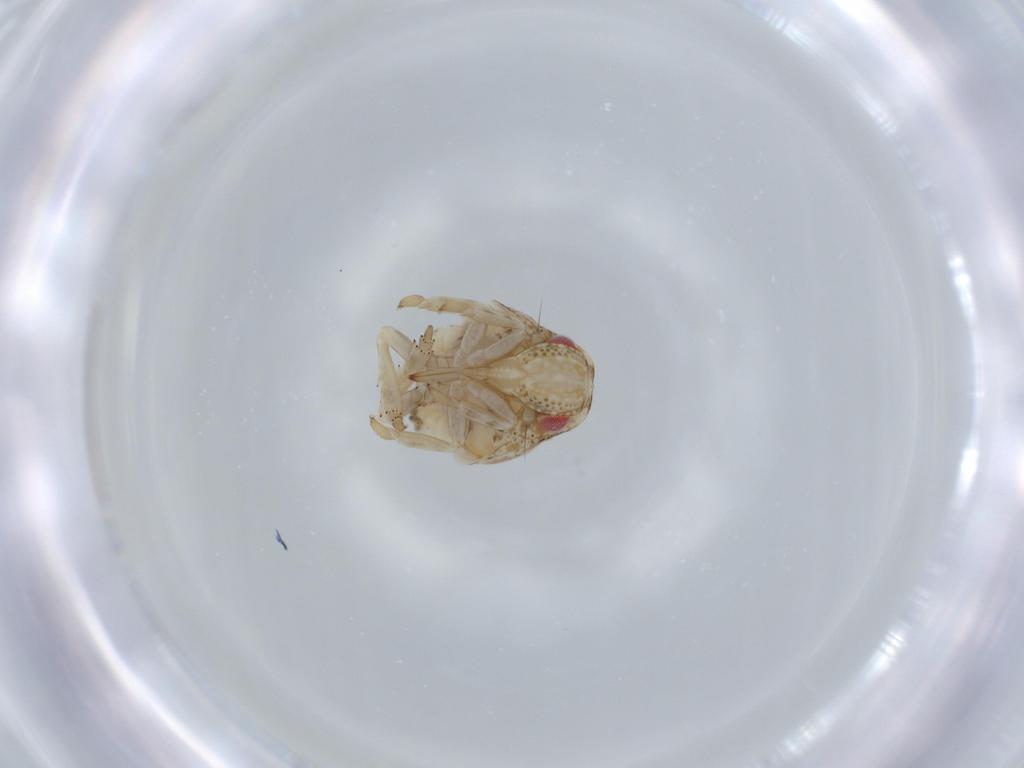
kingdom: Animalia
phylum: Arthropoda
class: Insecta
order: Hemiptera
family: Acanaloniidae
